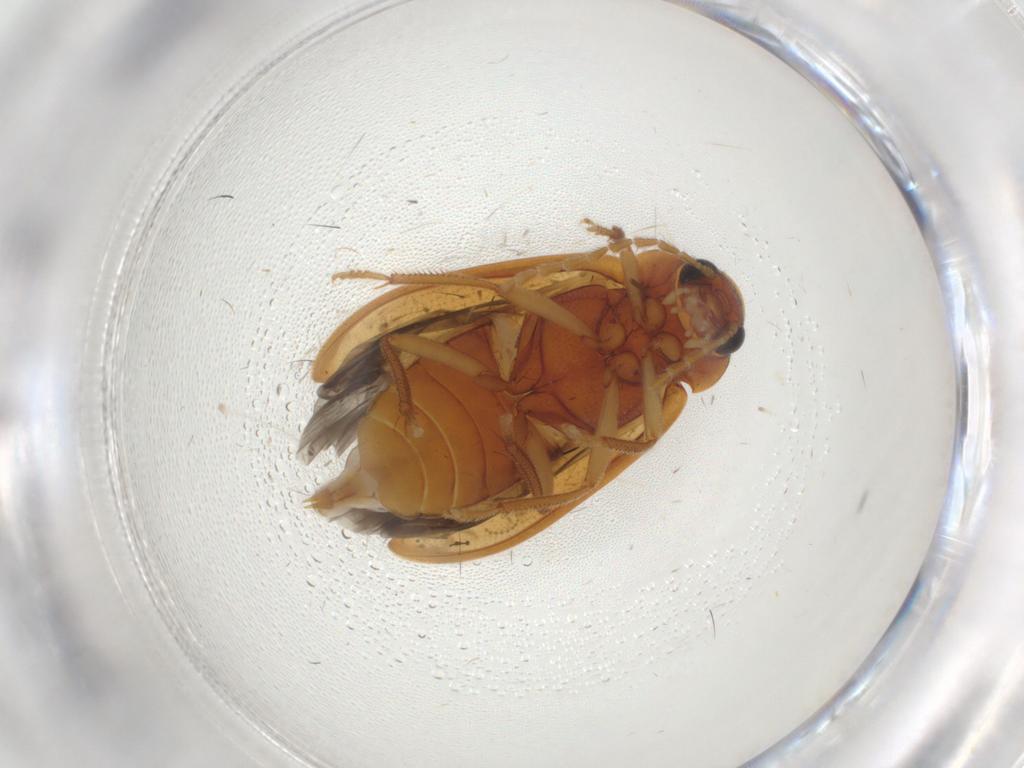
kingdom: Animalia
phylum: Arthropoda
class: Insecta
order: Coleoptera
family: Ptilodactylidae
